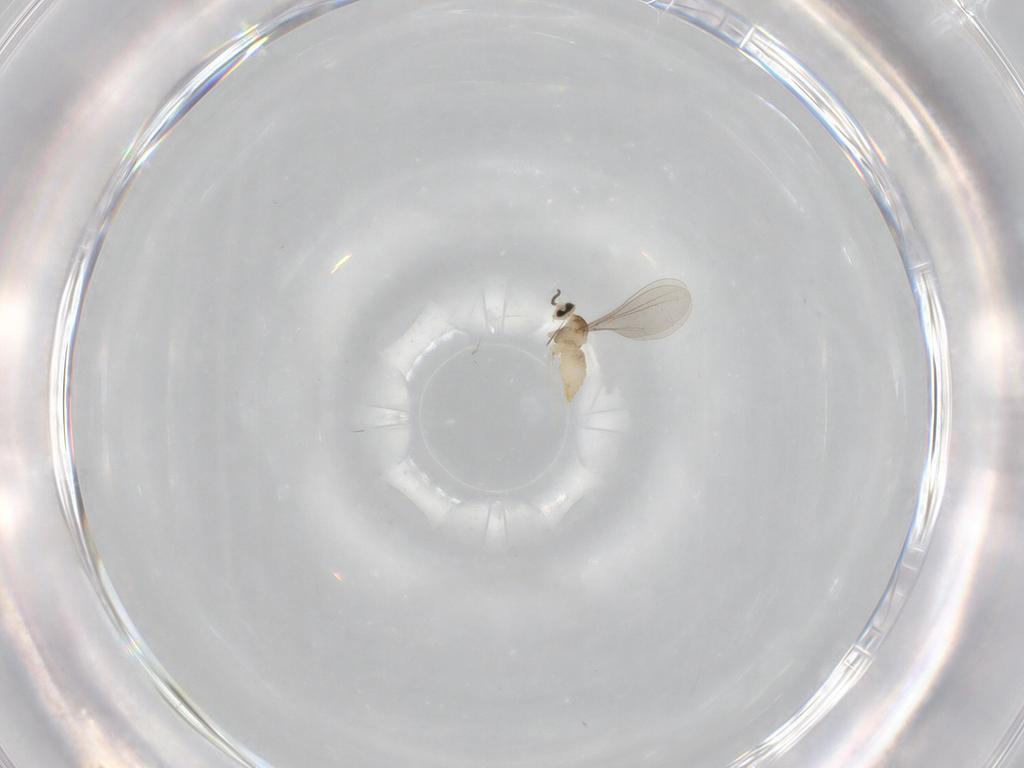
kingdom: Animalia
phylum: Arthropoda
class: Insecta
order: Diptera
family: Cecidomyiidae
